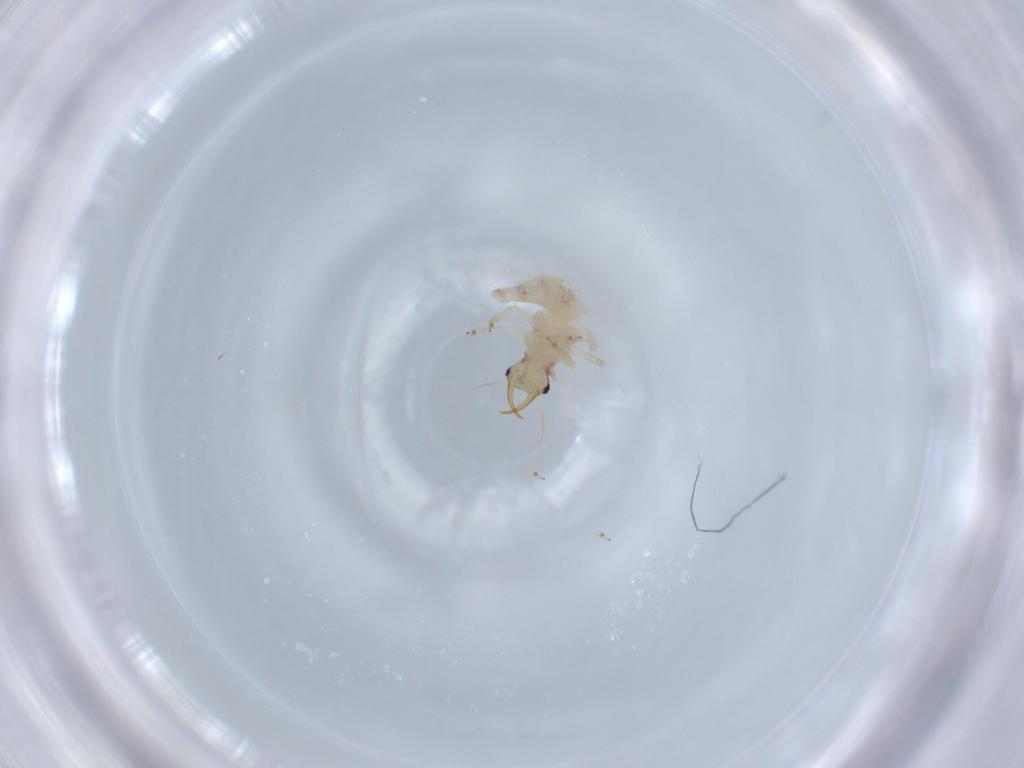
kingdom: Animalia
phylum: Arthropoda
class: Insecta
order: Neuroptera
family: Chrysopidae
